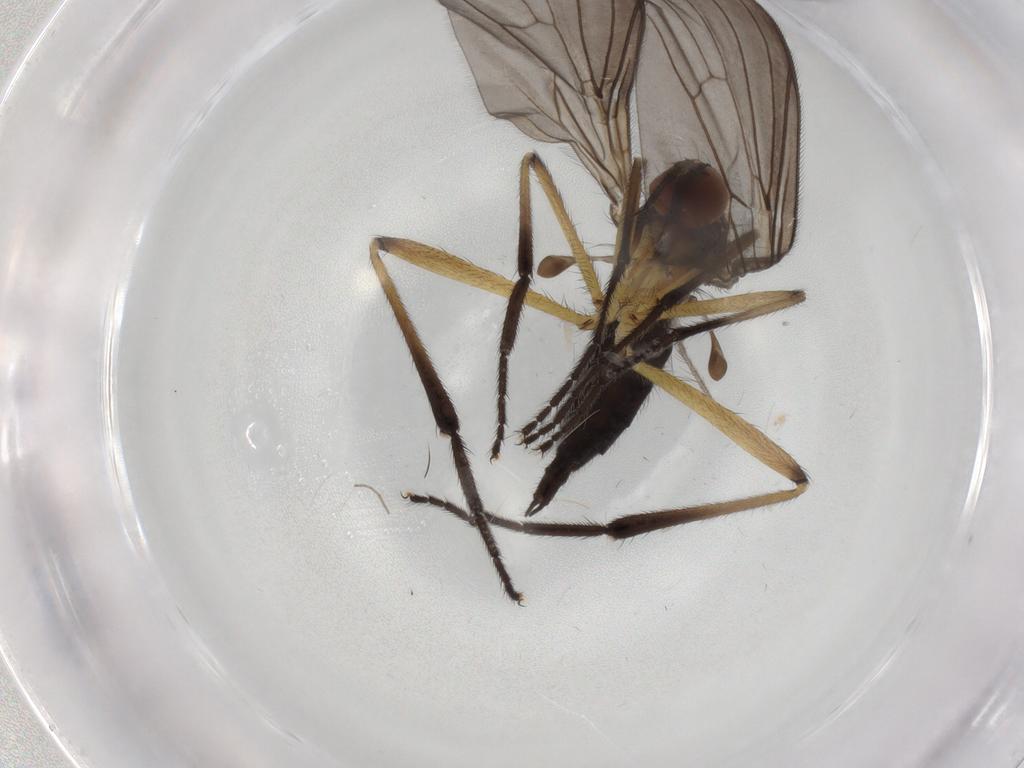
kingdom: Animalia
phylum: Arthropoda
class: Insecta
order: Diptera
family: Empididae
